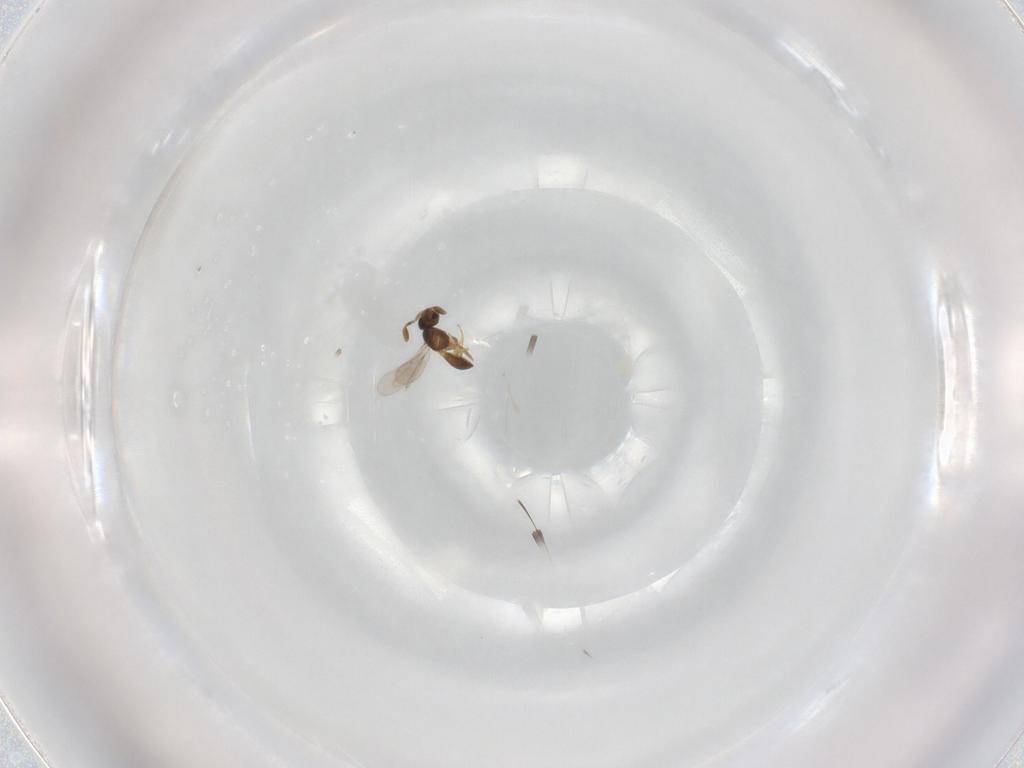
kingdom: Animalia
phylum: Arthropoda
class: Insecta
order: Hymenoptera
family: Scelionidae
